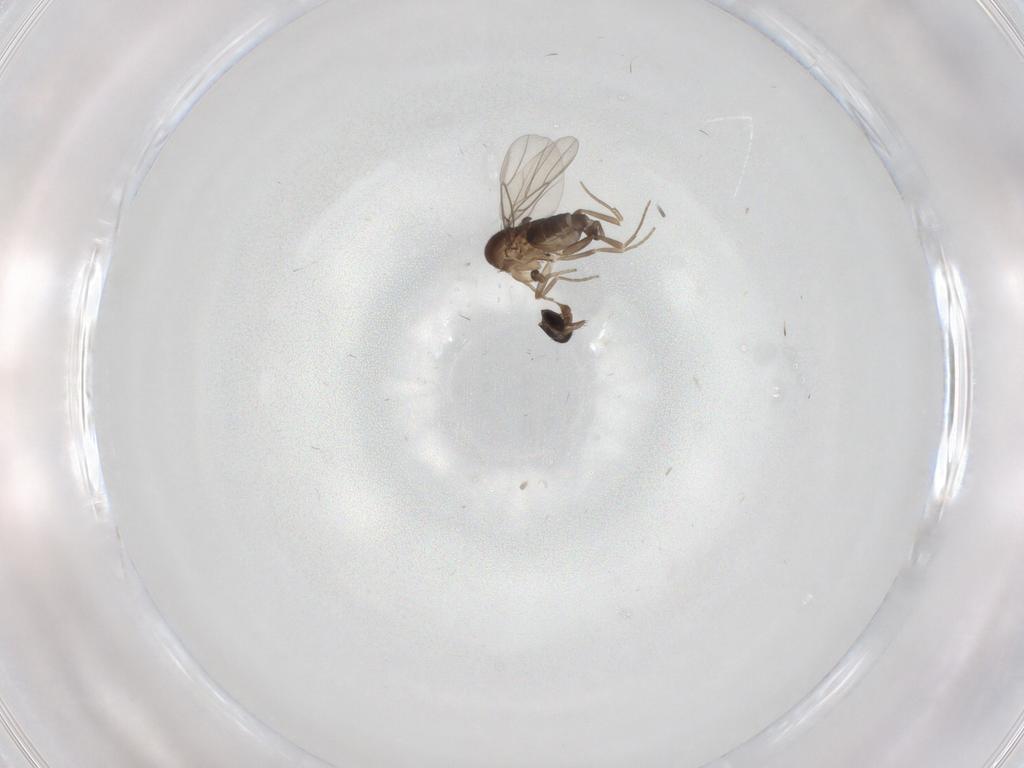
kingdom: Animalia
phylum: Arthropoda
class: Insecta
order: Diptera
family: Phoridae
